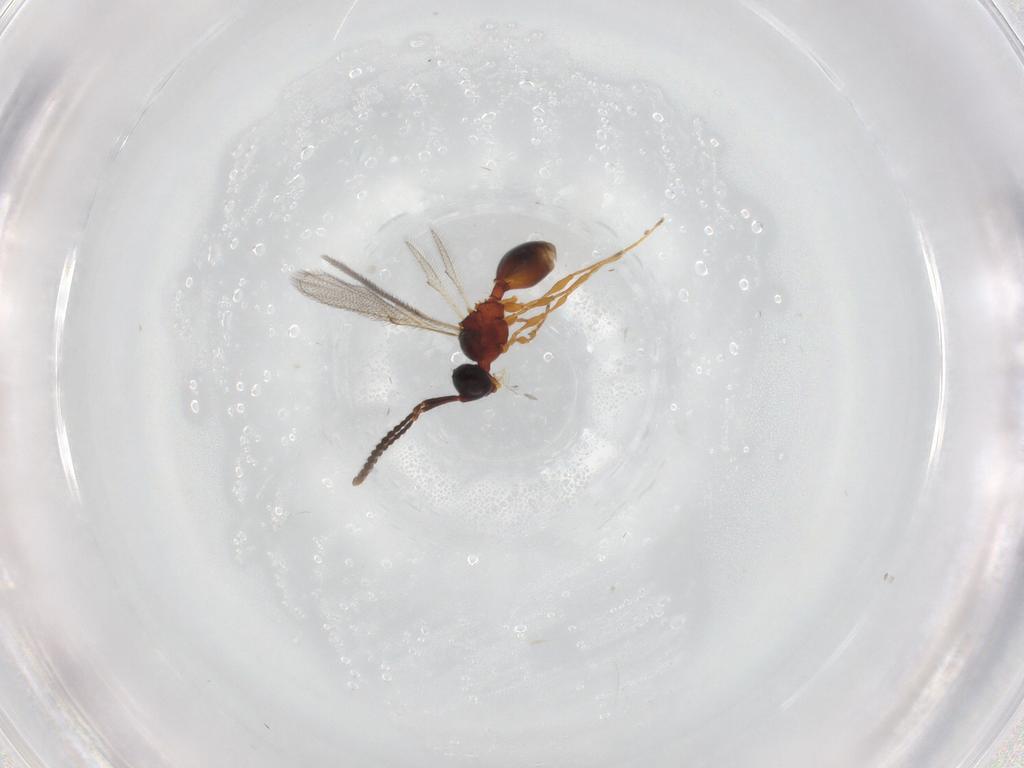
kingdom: Animalia
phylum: Arthropoda
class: Insecta
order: Hymenoptera
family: Diapriidae
